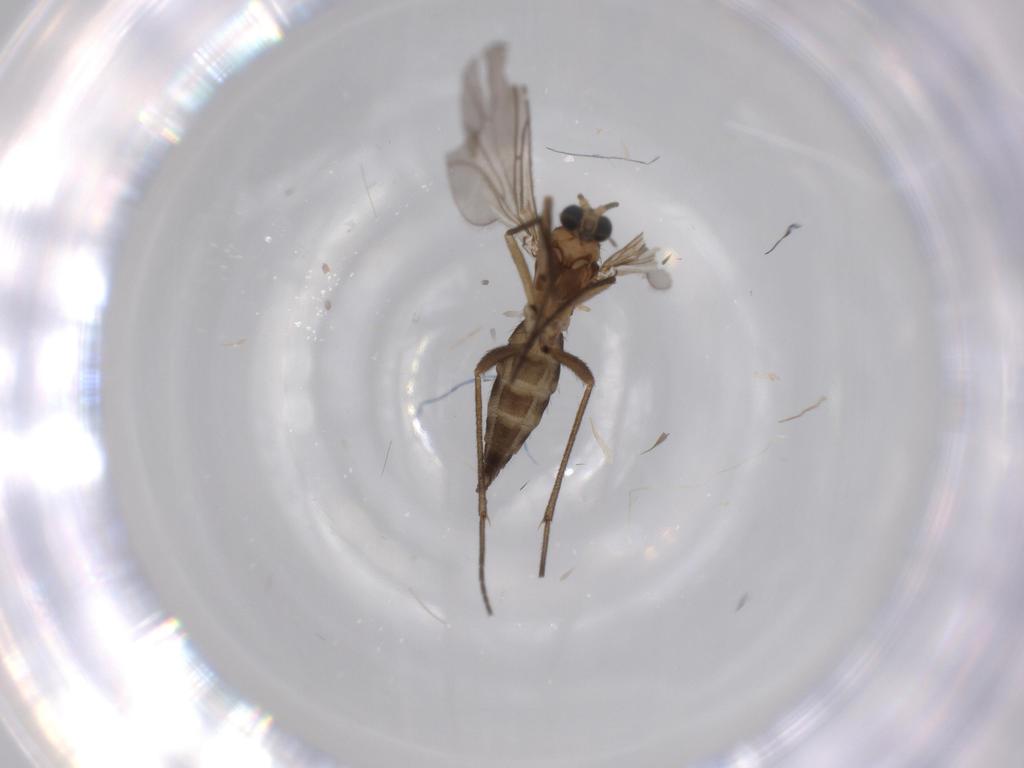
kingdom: Animalia
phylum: Arthropoda
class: Insecta
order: Diptera
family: Sciaridae
